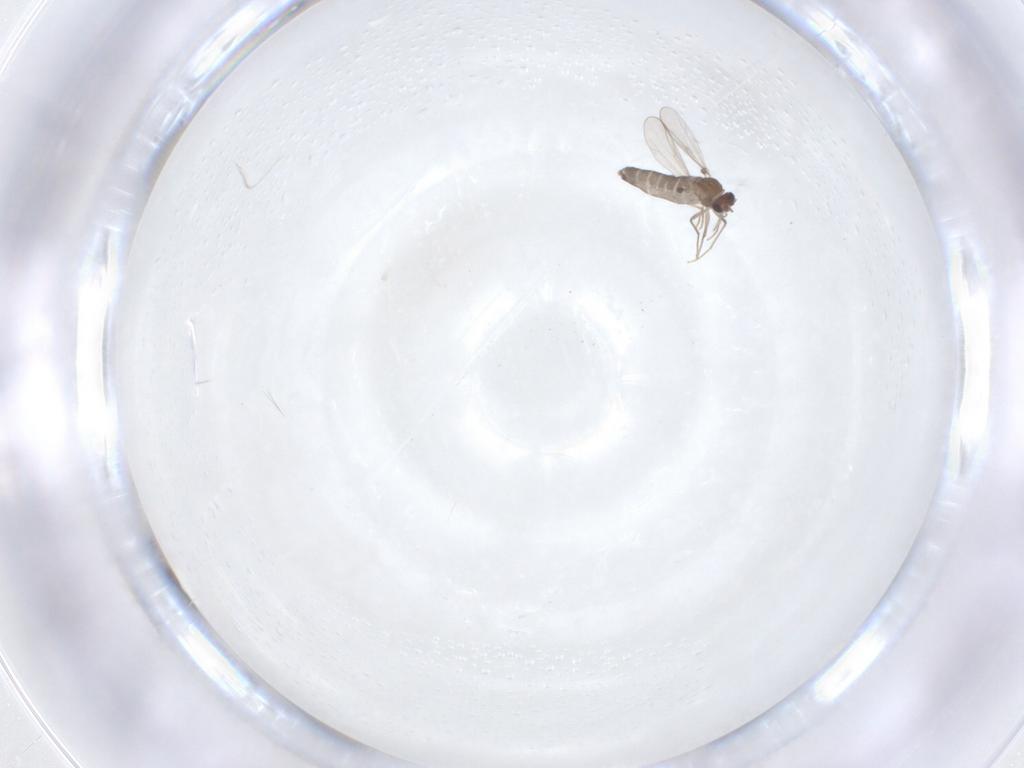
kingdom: Animalia
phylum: Arthropoda
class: Insecta
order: Diptera
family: Chironomidae
